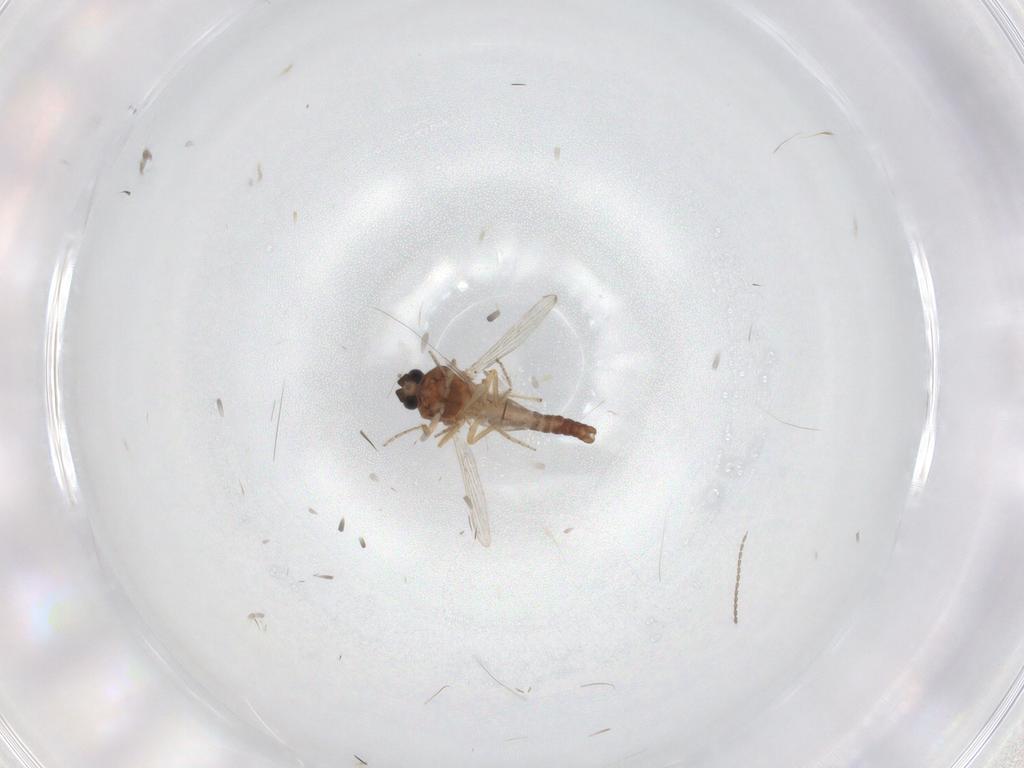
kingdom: Animalia
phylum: Arthropoda
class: Insecta
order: Diptera
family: Ceratopogonidae
